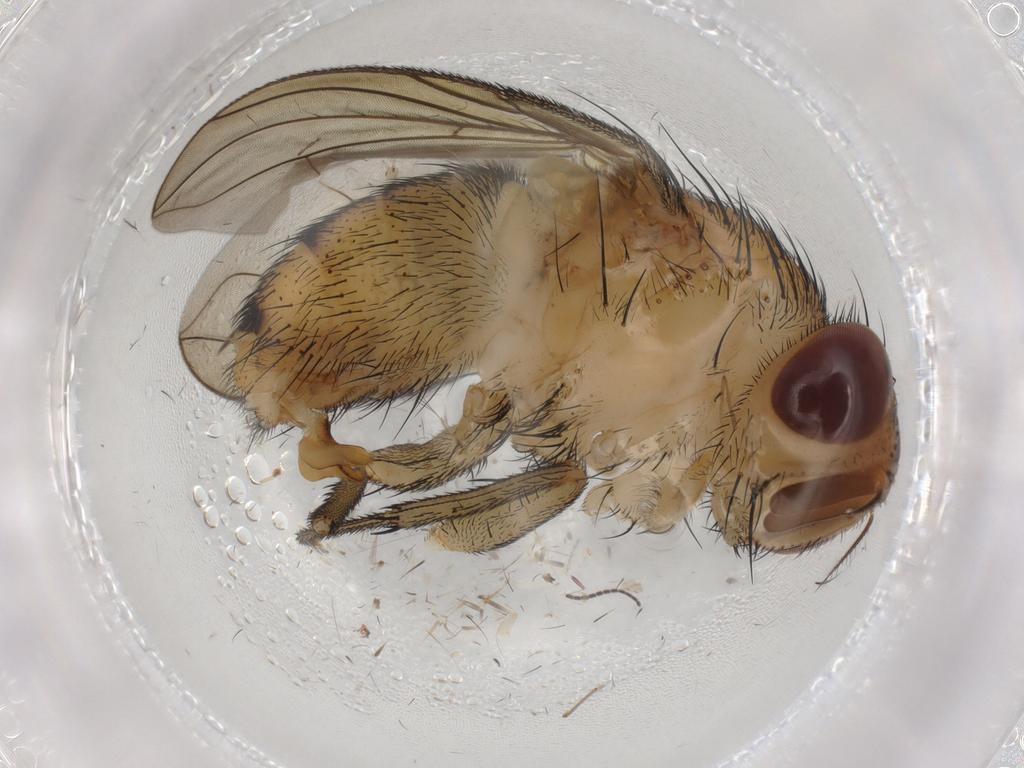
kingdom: Animalia
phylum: Arthropoda
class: Insecta
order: Diptera
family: Calliphoridae
